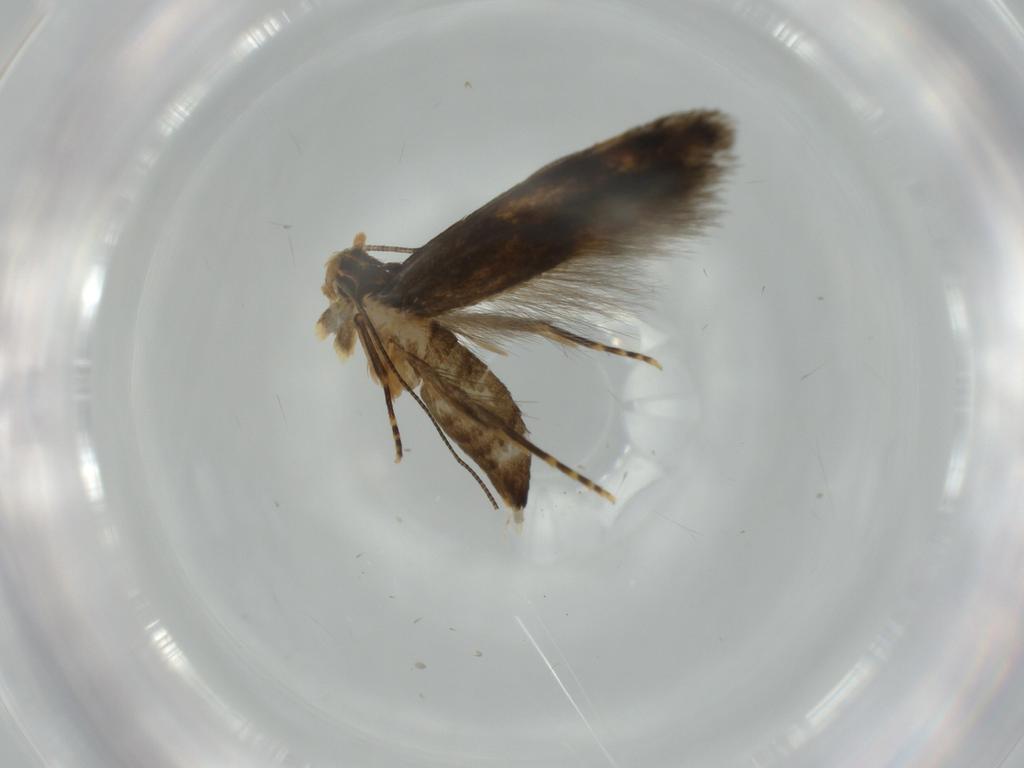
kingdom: Animalia
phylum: Arthropoda
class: Insecta
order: Lepidoptera
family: Tineidae
